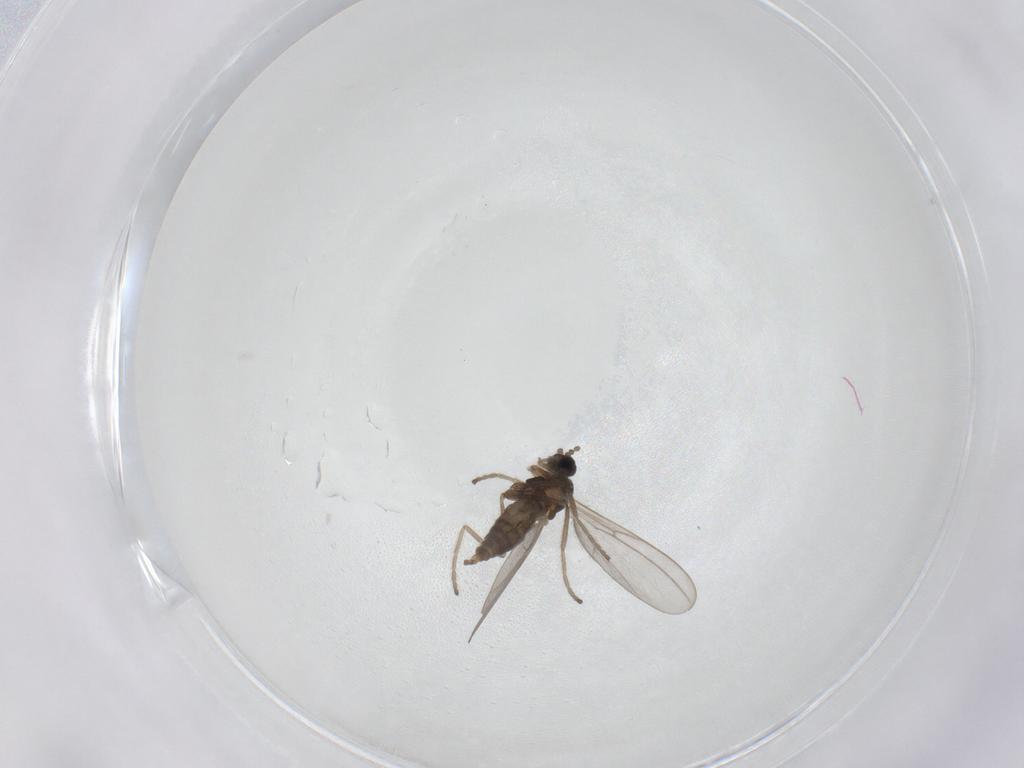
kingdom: Animalia
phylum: Arthropoda
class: Insecta
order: Diptera
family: Cecidomyiidae
